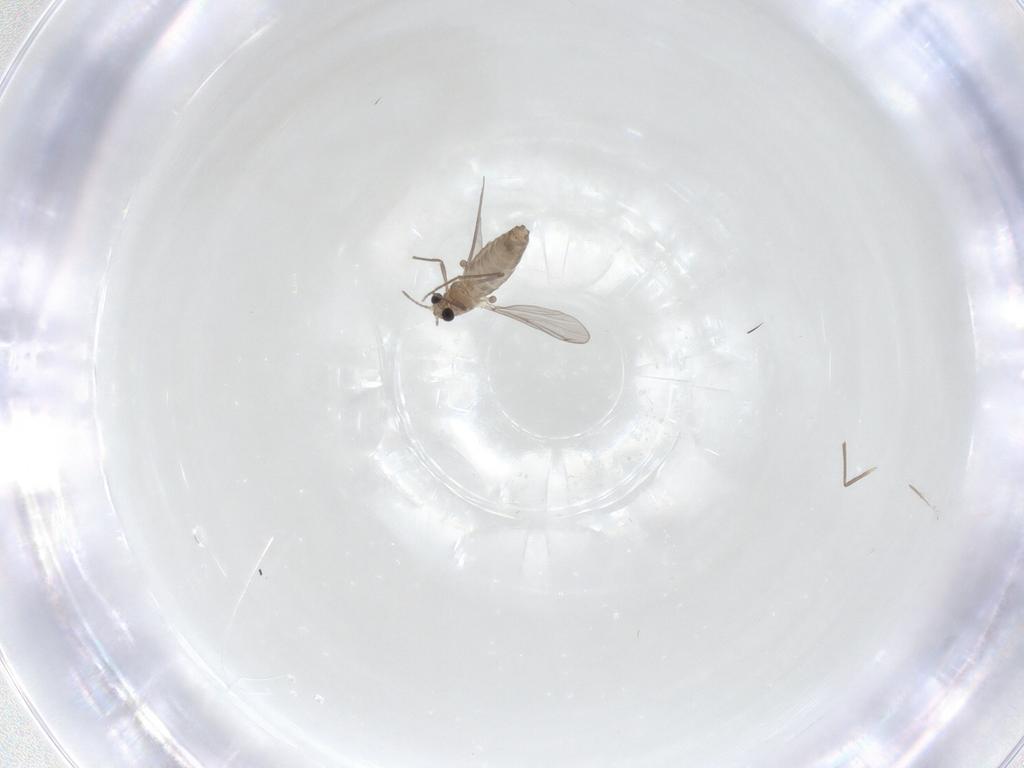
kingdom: Animalia
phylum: Arthropoda
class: Insecta
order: Diptera
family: Chironomidae
